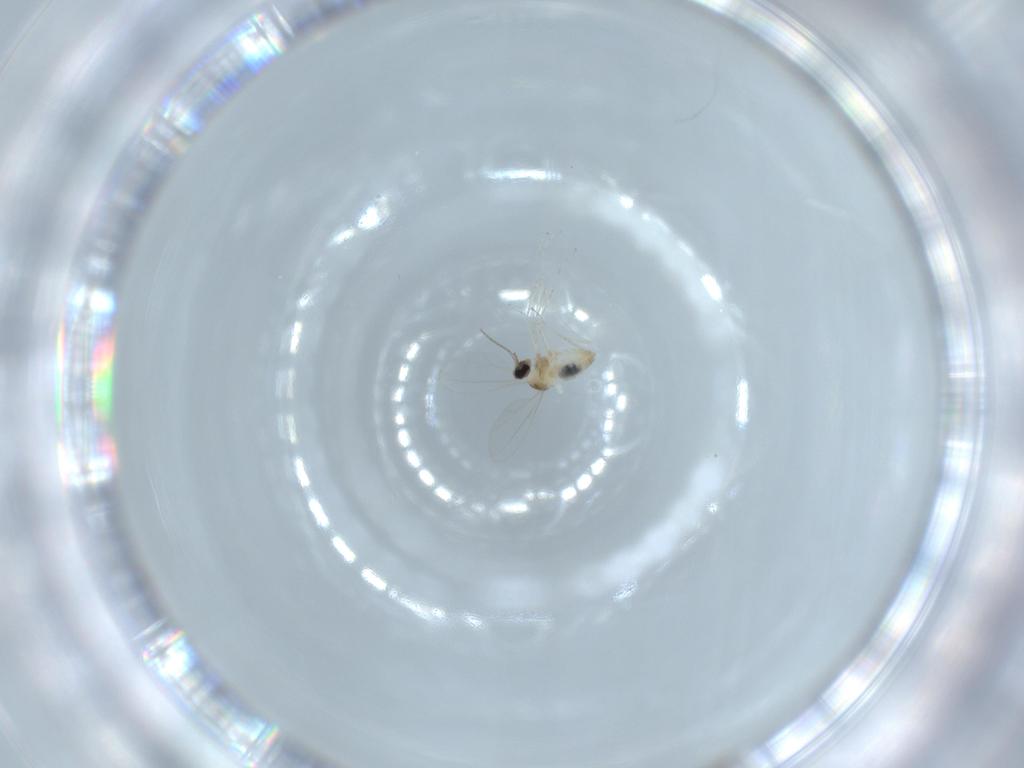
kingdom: Animalia
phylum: Arthropoda
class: Insecta
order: Diptera
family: Cecidomyiidae
